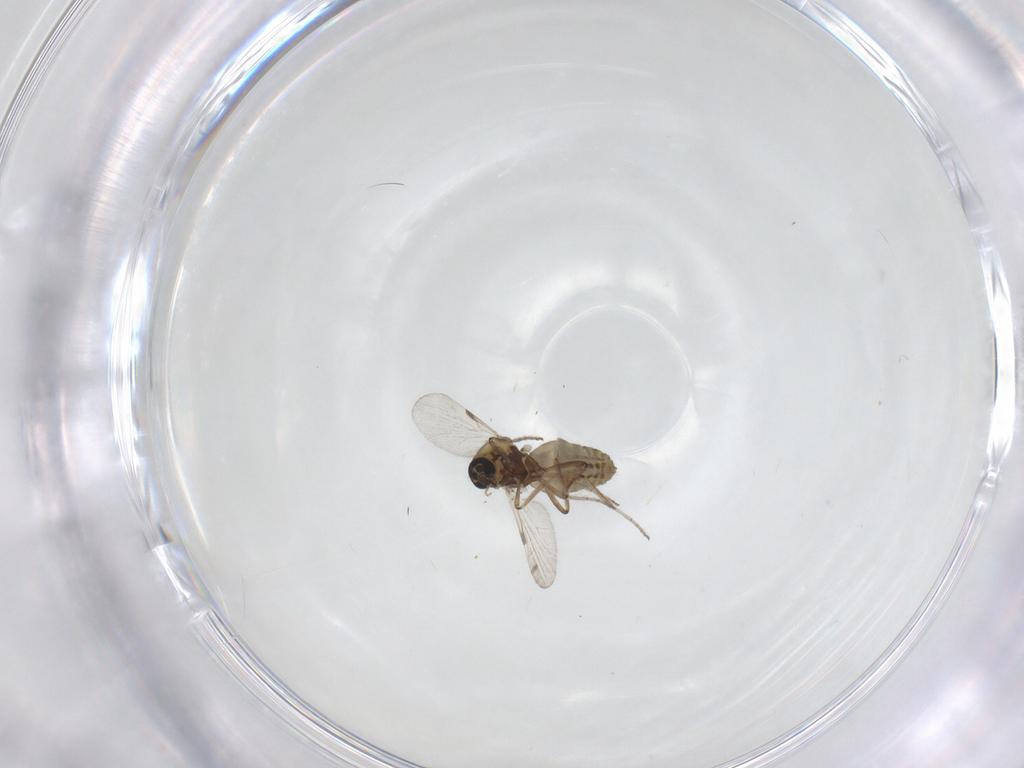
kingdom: Animalia
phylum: Arthropoda
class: Insecta
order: Diptera
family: Ceratopogonidae
